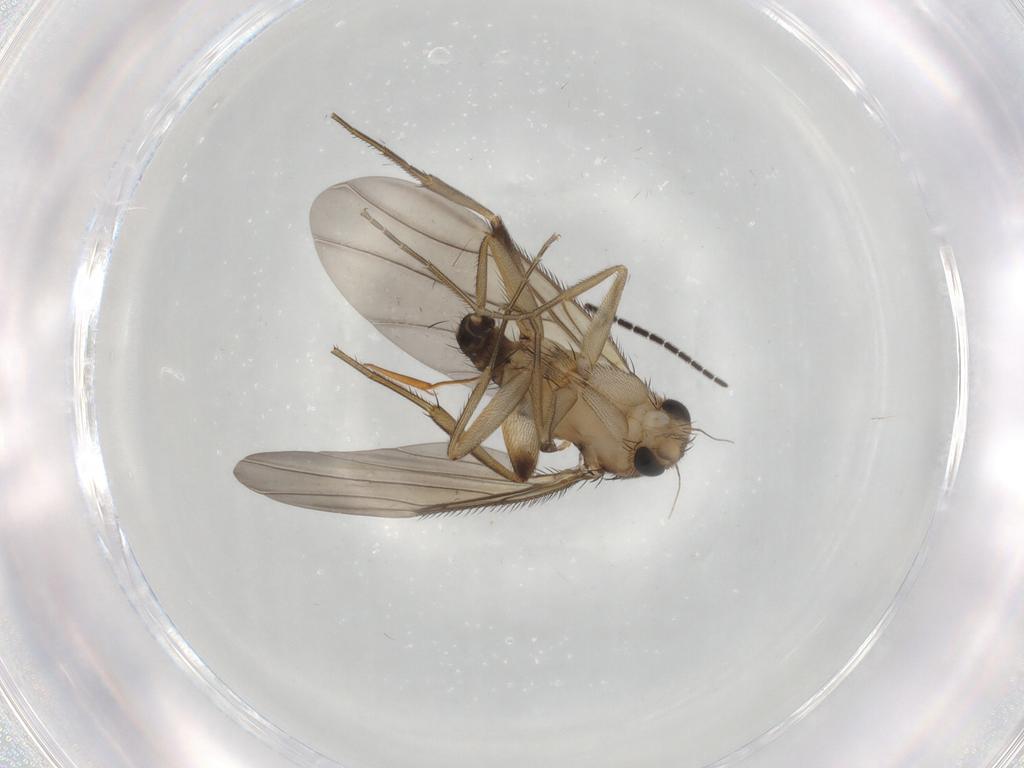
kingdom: Animalia
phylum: Arthropoda
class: Insecta
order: Diptera
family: Phoridae
